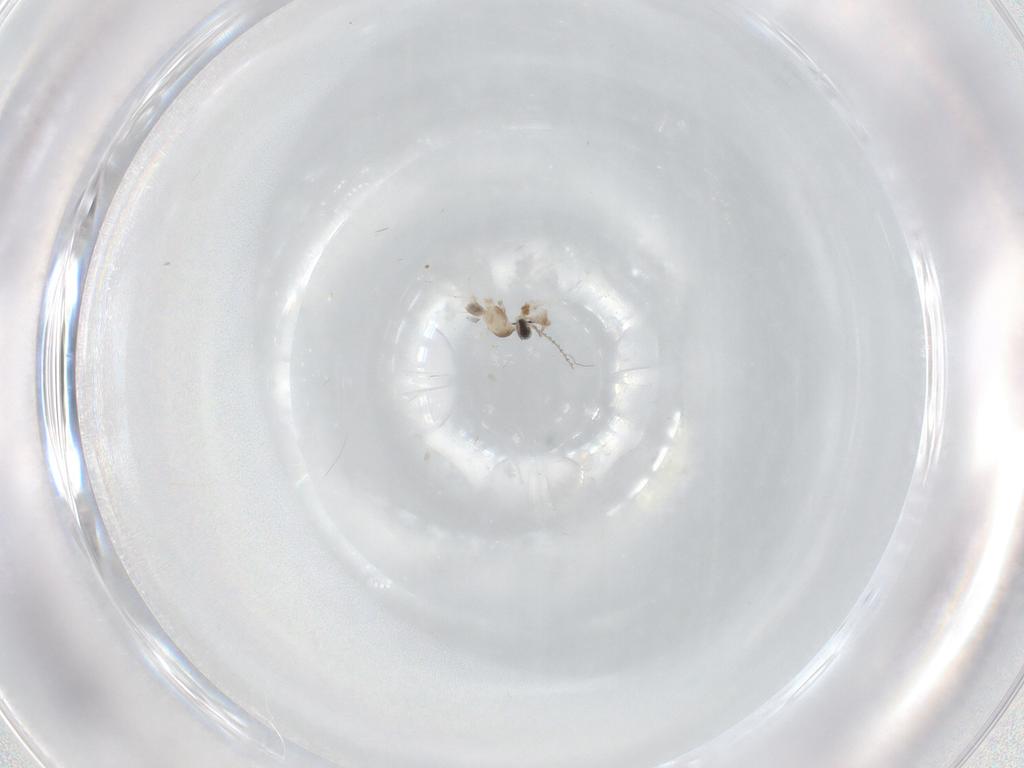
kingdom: Animalia
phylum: Arthropoda
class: Insecta
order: Diptera
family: Cecidomyiidae
